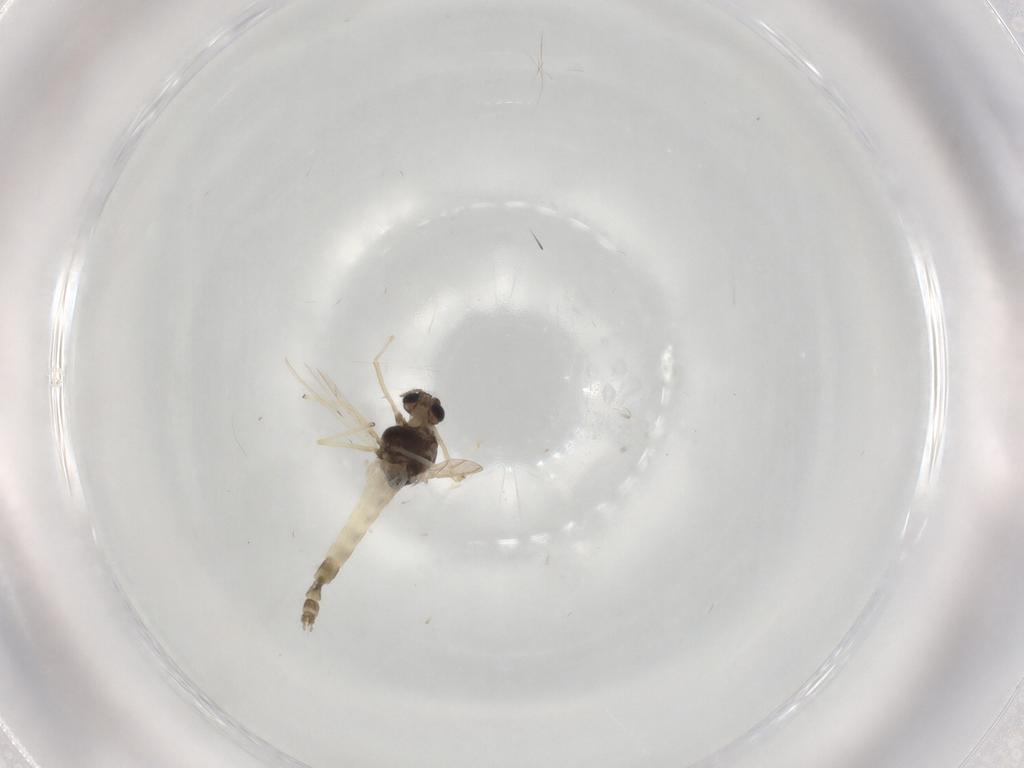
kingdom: Animalia
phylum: Arthropoda
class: Insecta
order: Diptera
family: Chironomidae
